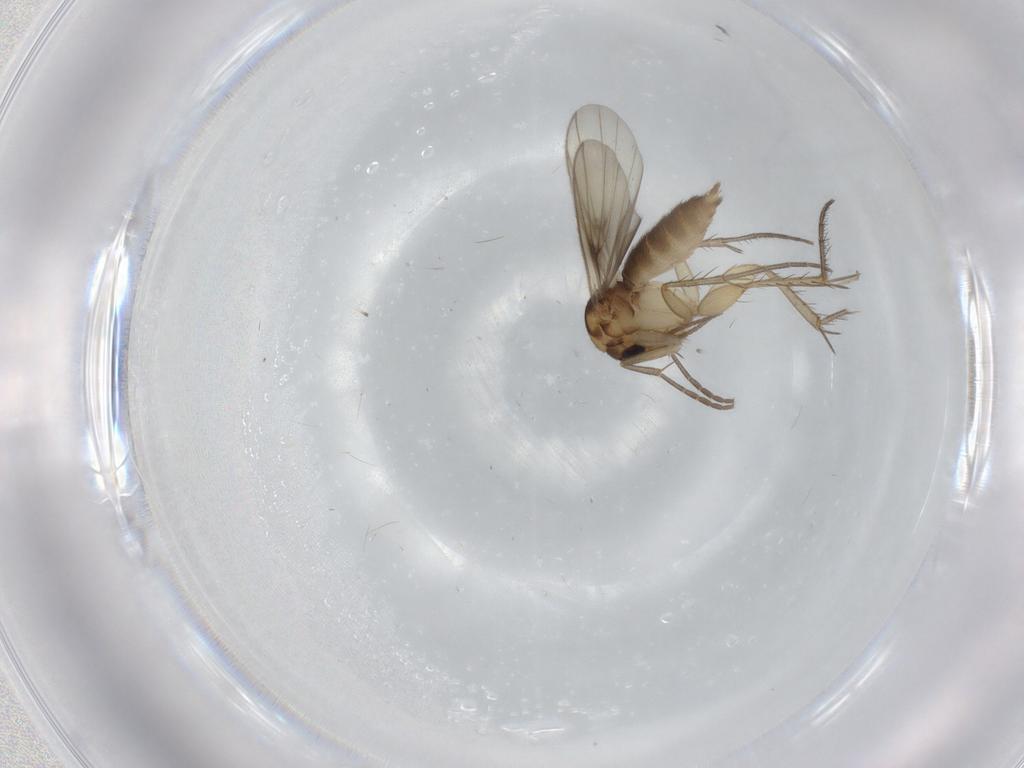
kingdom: Animalia
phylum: Arthropoda
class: Insecta
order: Diptera
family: Mycetophilidae
